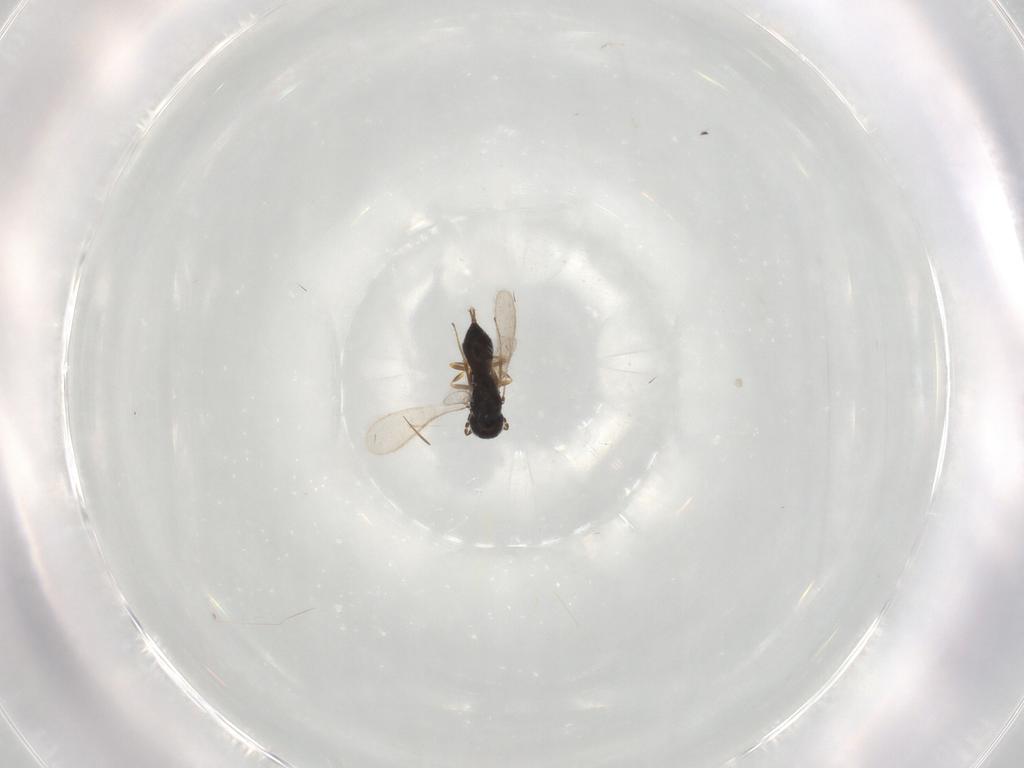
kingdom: Animalia
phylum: Arthropoda
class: Insecta
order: Hymenoptera
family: Scelionidae
